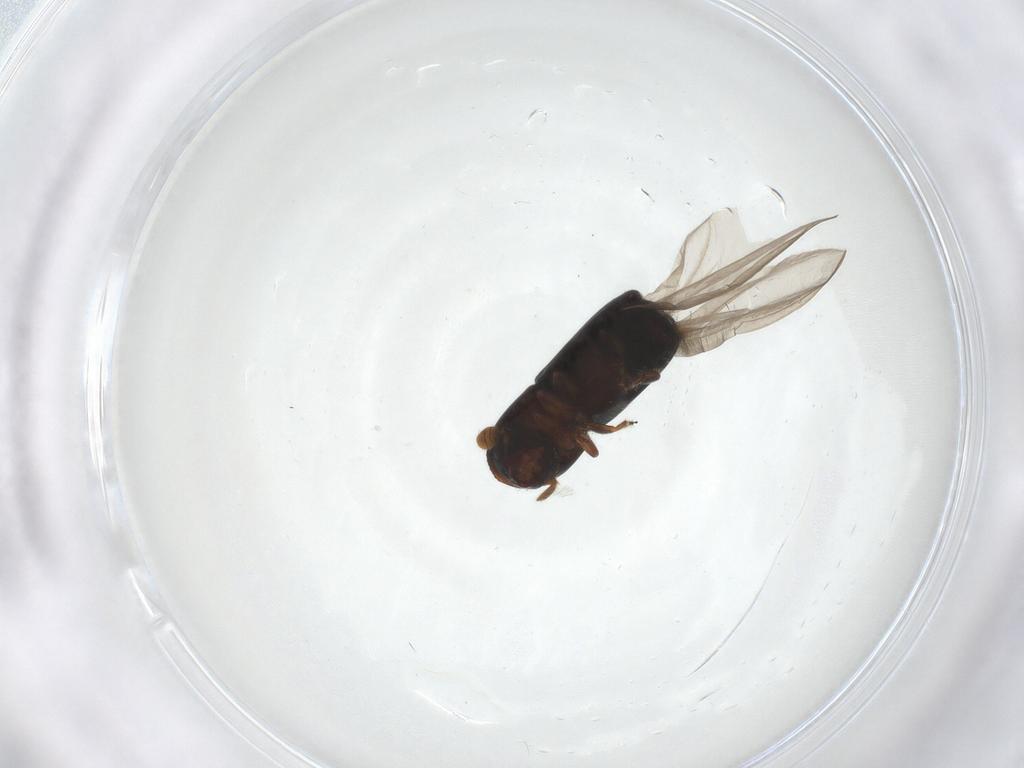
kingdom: Animalia
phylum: Arthropoda
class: Insecta
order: Coleoptera
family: Curculionidae
